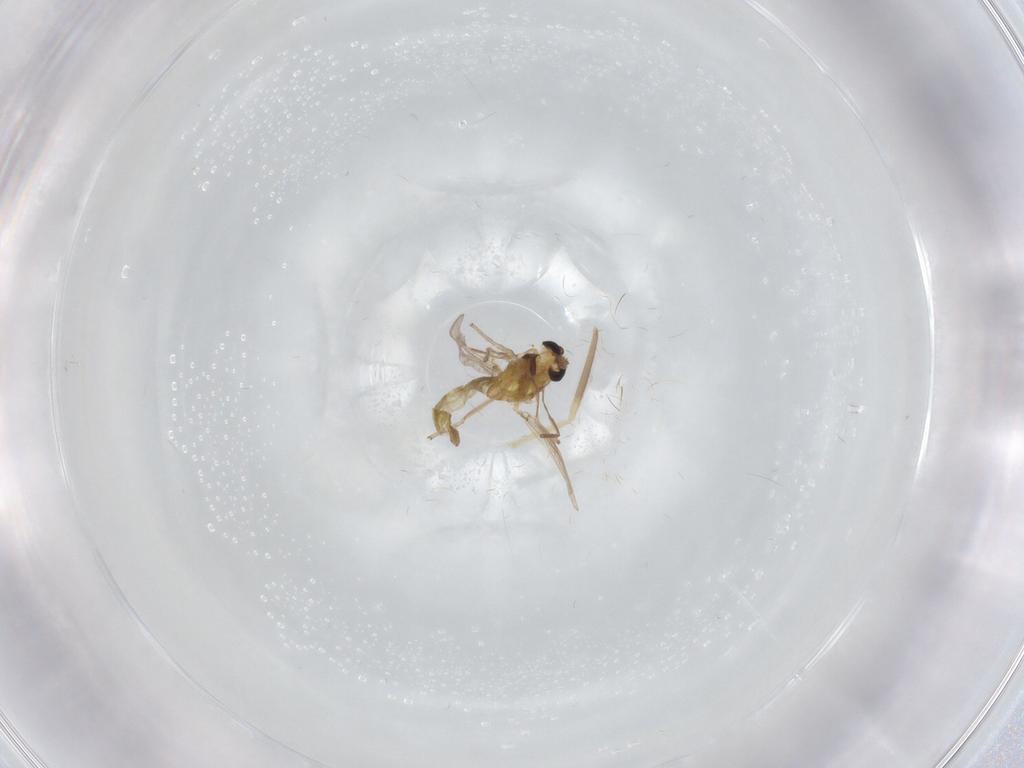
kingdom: Animalia
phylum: Arthropoda
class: Insecta
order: Diptera
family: Chironomidae
